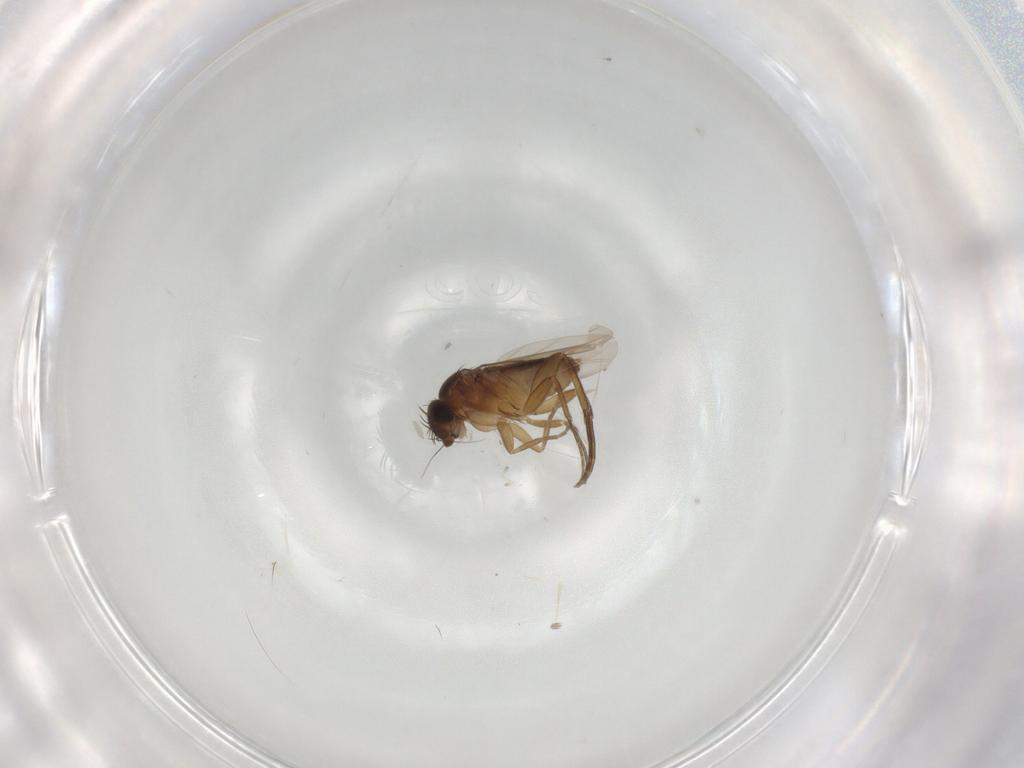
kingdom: Animalia
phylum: Arthropoda
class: Insecta
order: Diptera
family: Phoridae
